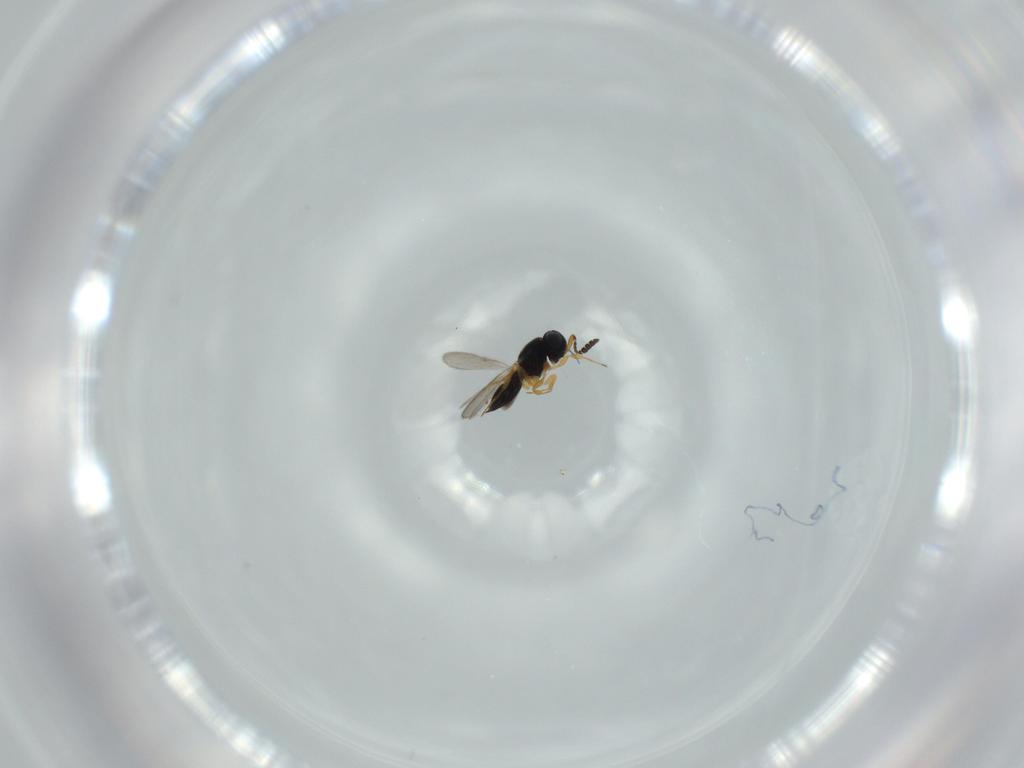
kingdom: Animalia
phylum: Arthropoda
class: Insecta
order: Hymenoptera
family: Scelionidae
